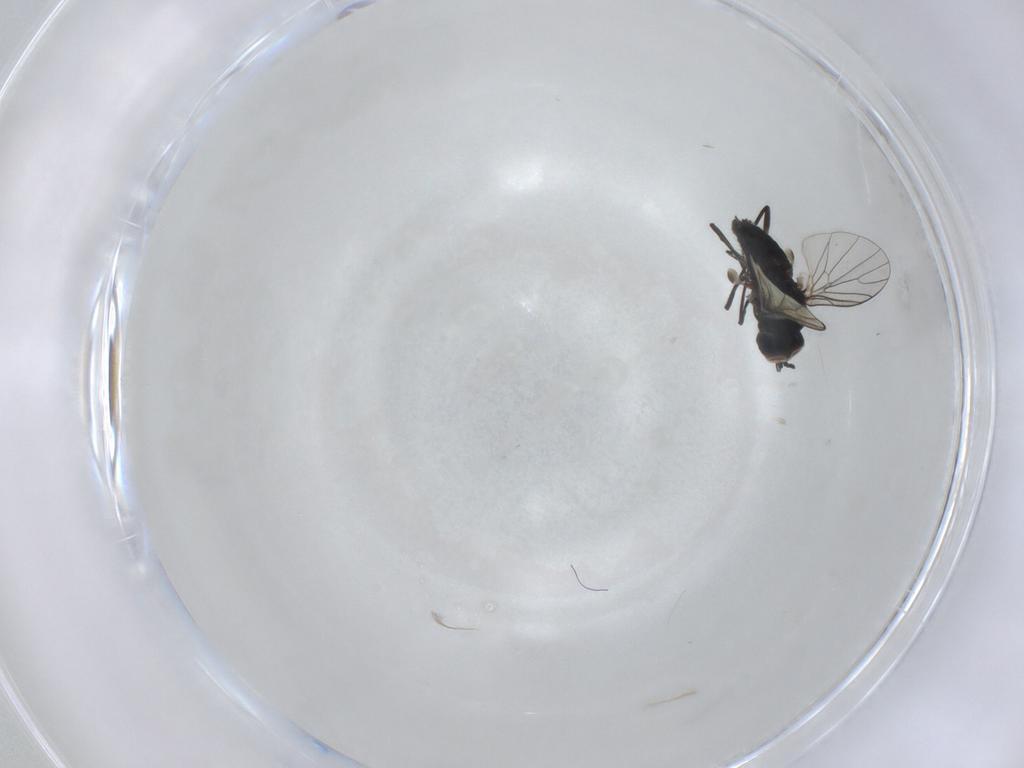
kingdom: Animalia
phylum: Arthropoda
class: Insecta
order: Diptera
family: Bombyliidae
